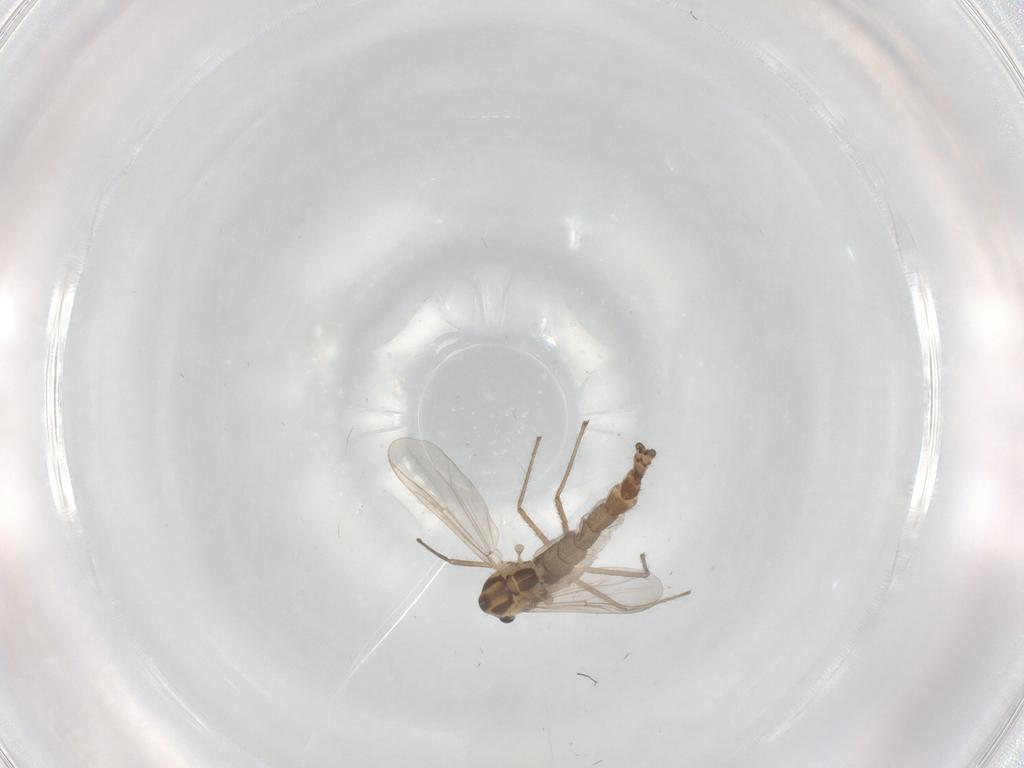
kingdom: Animalia
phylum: Arthropoda
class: Insecta
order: Diptera
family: Chironomidae
